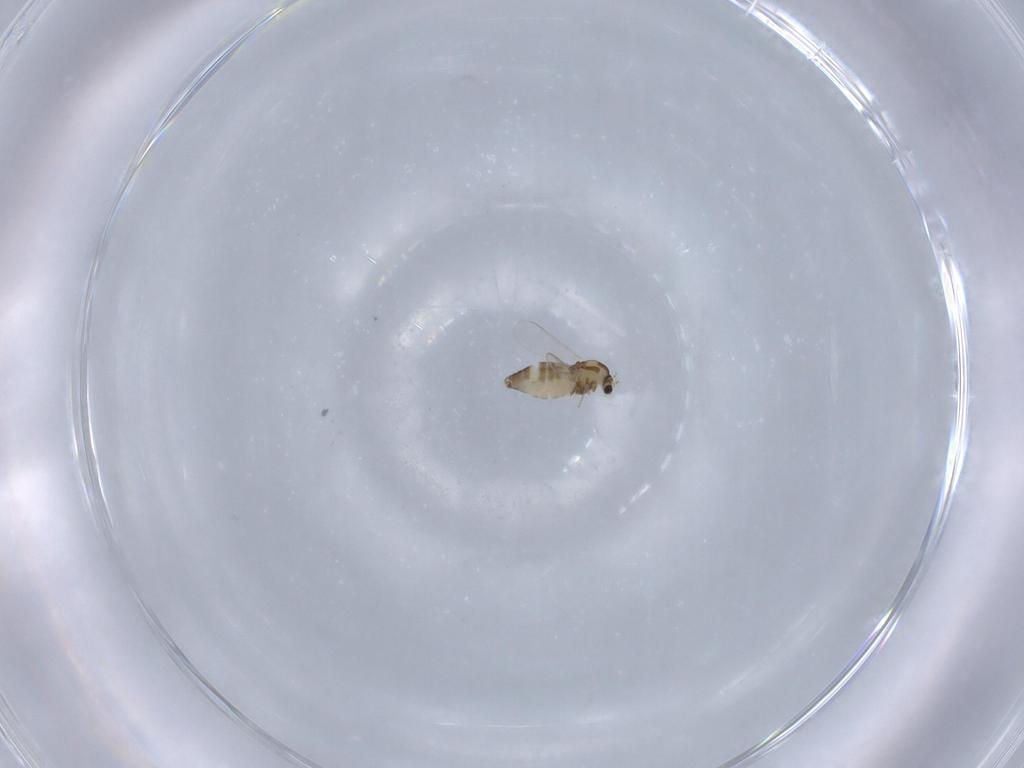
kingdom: Animalia
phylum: Arthropoda
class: Insecta
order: Diptera
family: Chironomidae
